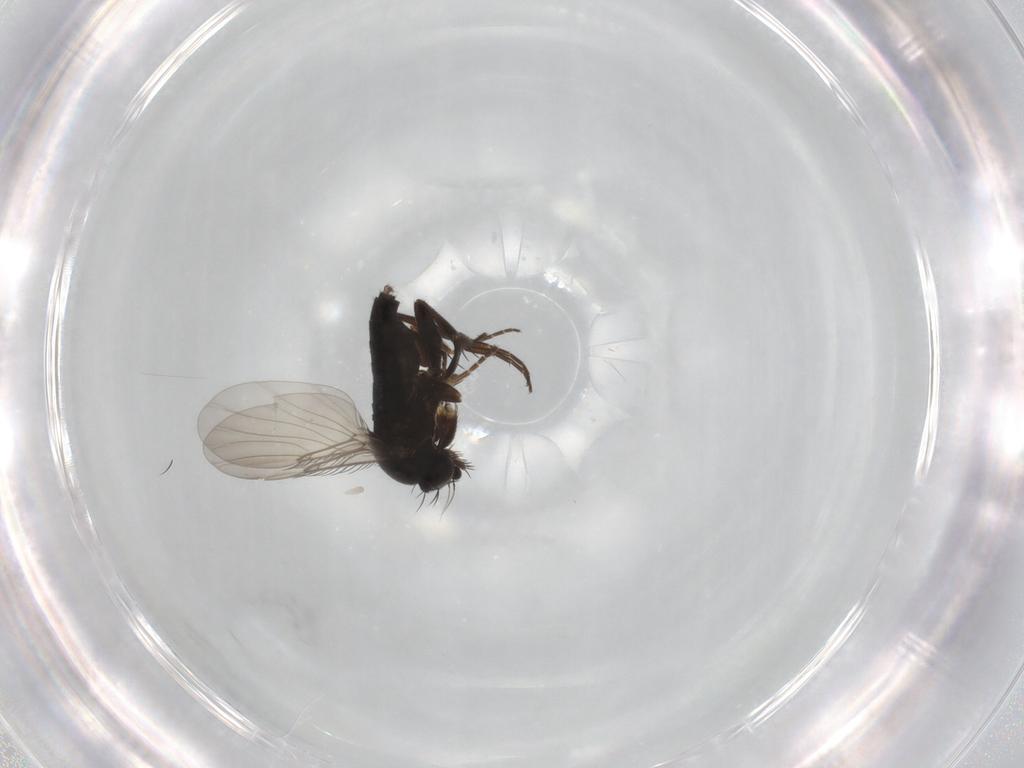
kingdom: Animalia
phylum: Arthropoda
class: Insecta
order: Diptera
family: Phoridae
